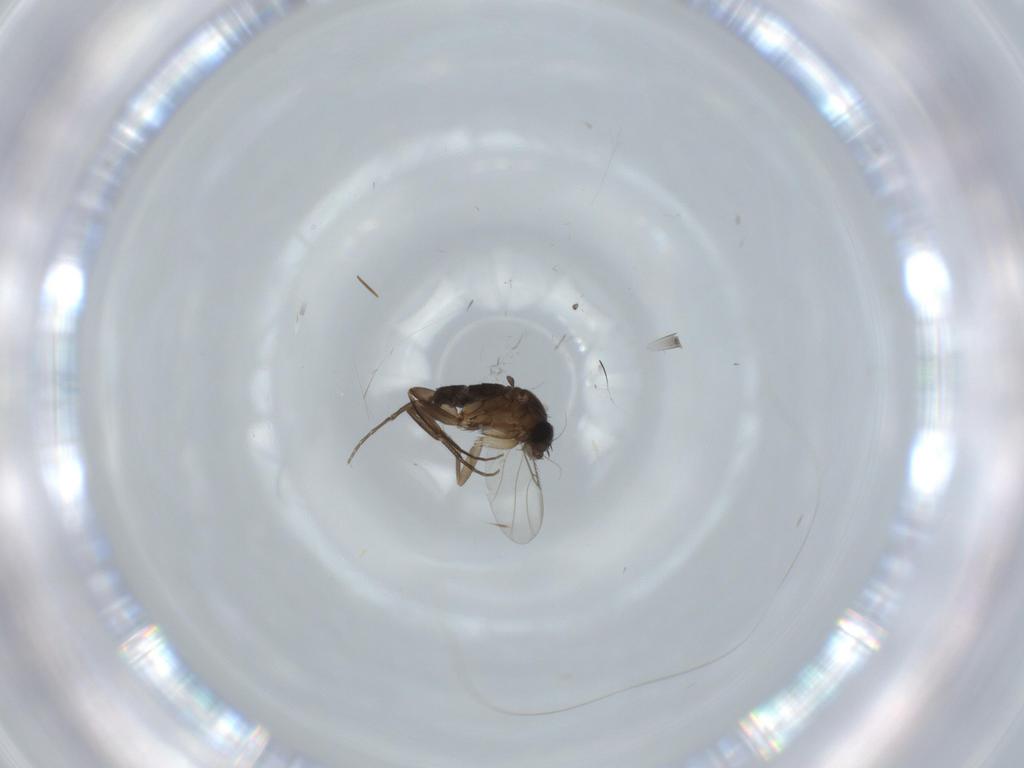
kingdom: Animalia
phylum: Arthropoda
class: Insecta
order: Diptera
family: Phoridae
